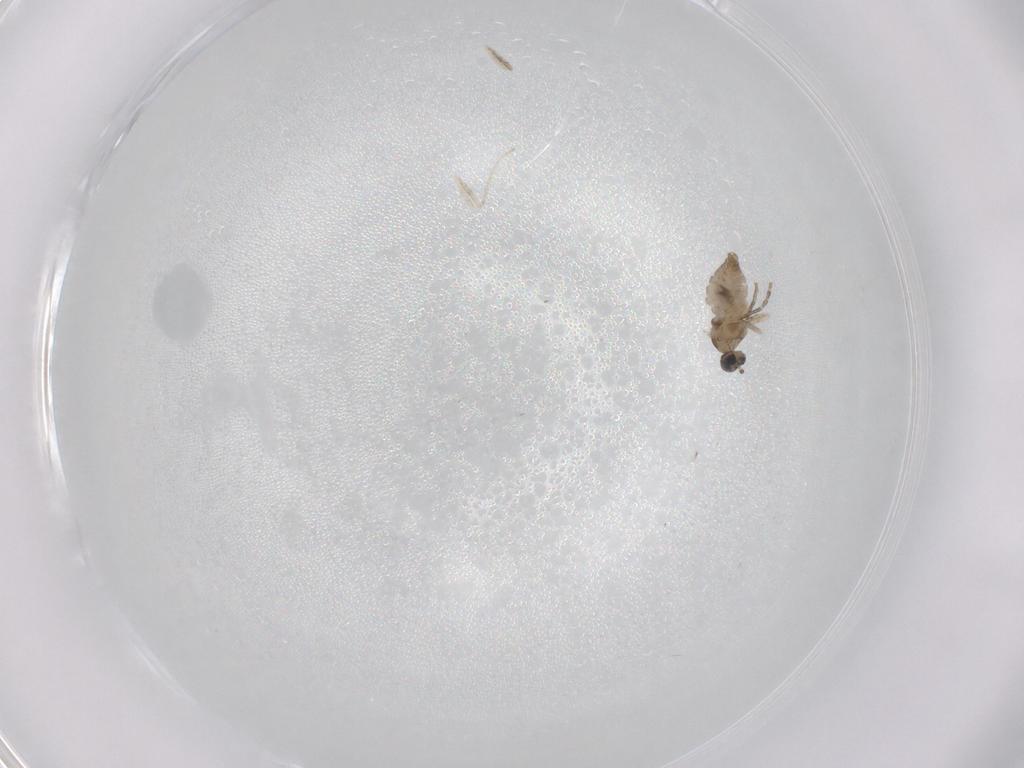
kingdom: Animalia
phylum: Arthropoda
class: Insecta
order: Diptera
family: Cecidomyiidae
